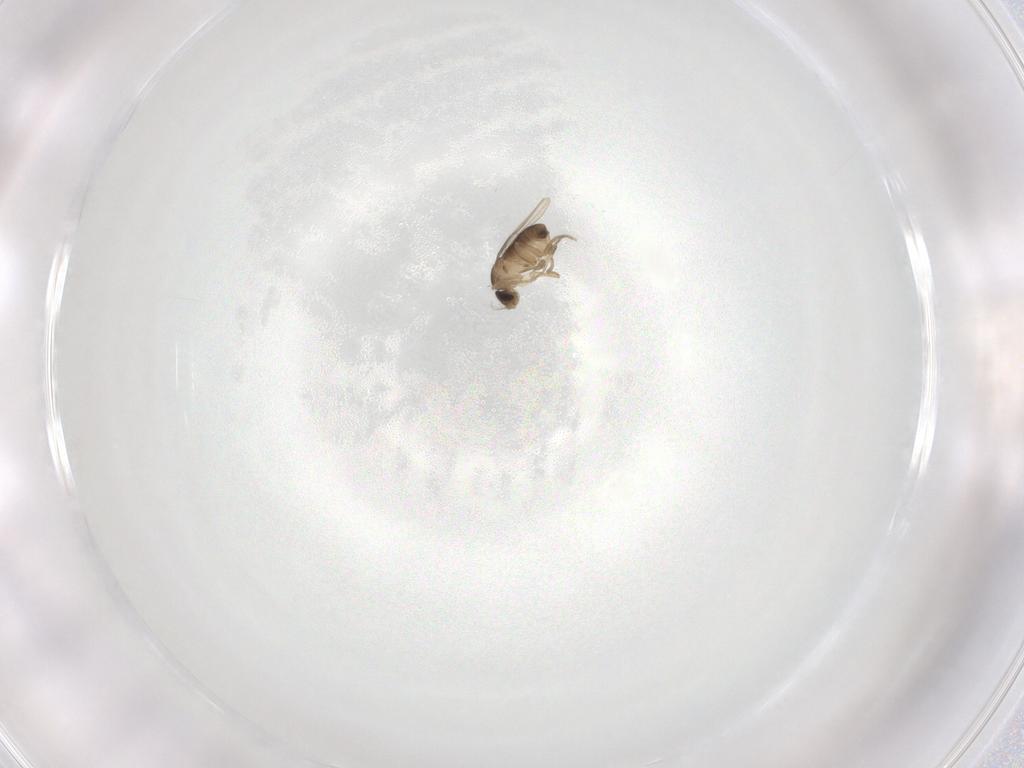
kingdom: Animalia
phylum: Arthropoda
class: Insecta
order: Diptera
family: Phoridae
